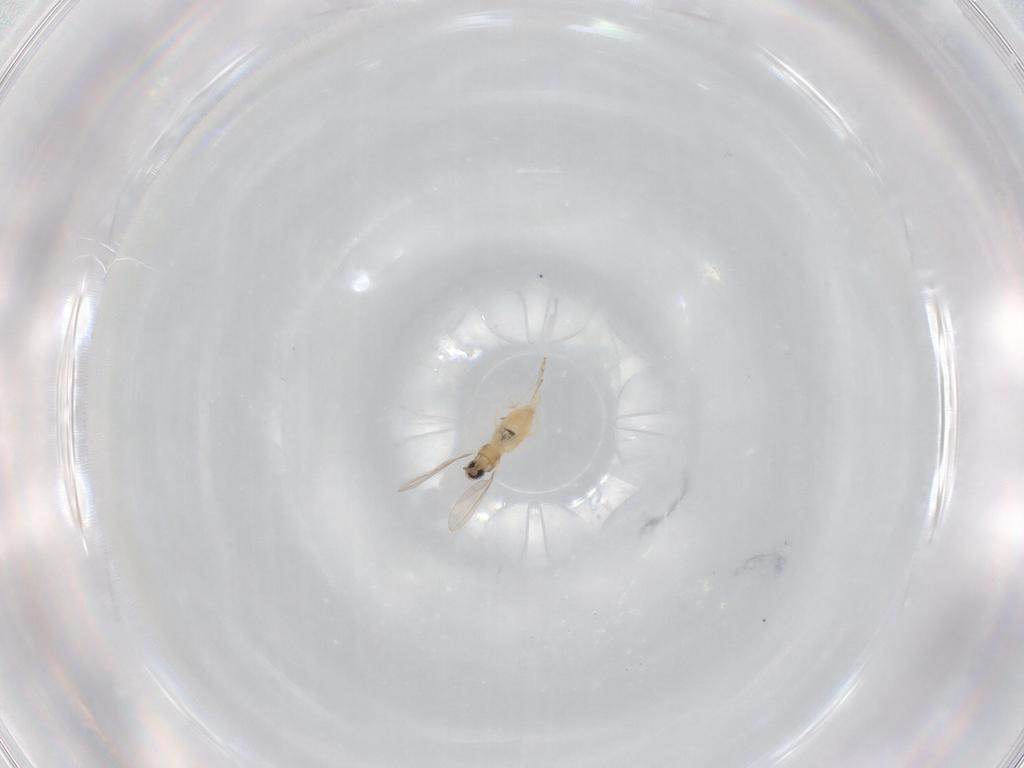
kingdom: Animalia
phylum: Arthropoda
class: Insecta
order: Diptera
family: Cecidomyiidae
